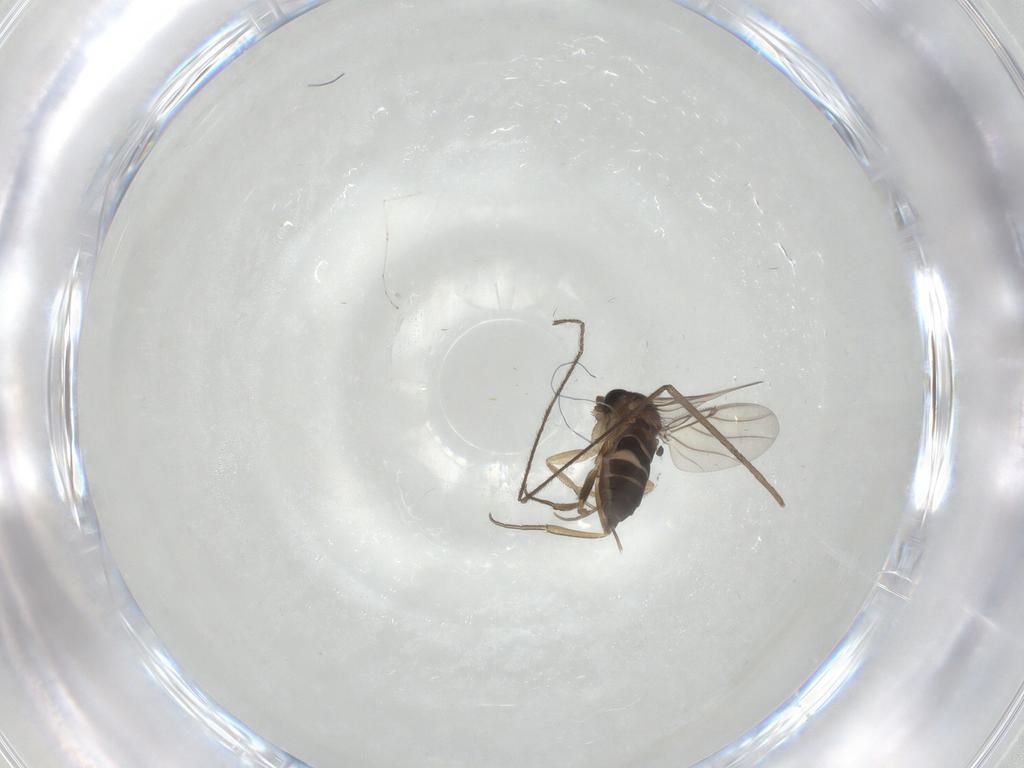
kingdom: Animalia
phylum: Arthropoda
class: Insecta
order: Diptera
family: Limoniidae
